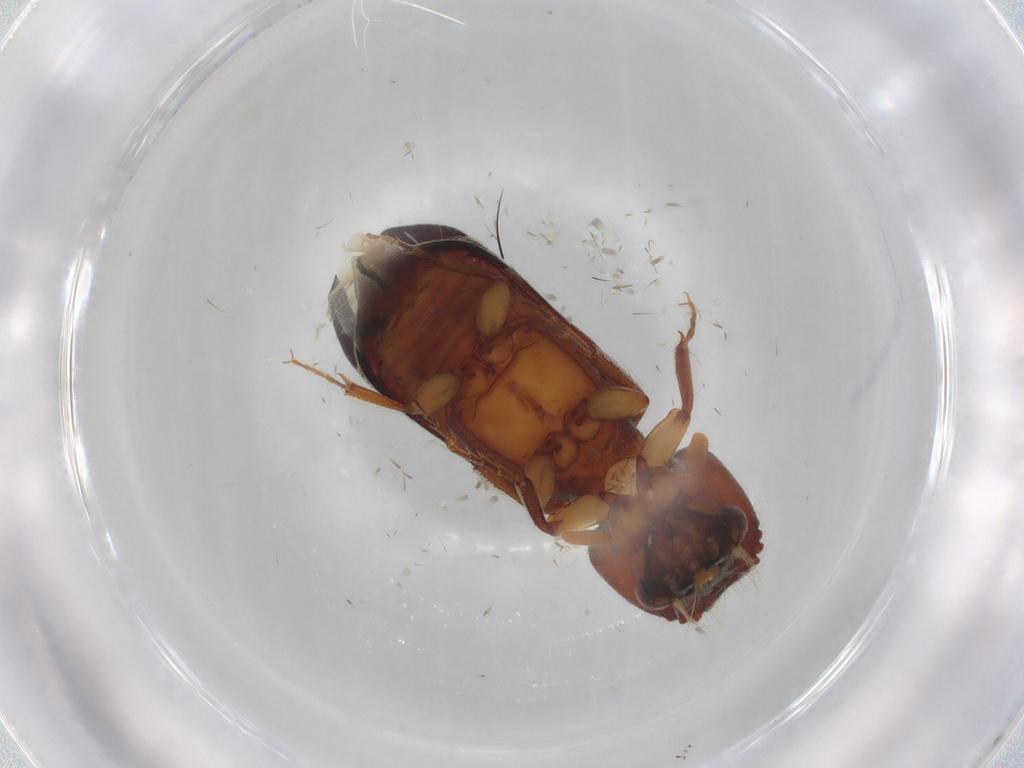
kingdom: Animalia
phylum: Arthropoda
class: Insecta
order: Coleoptera
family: Bostrichidae
